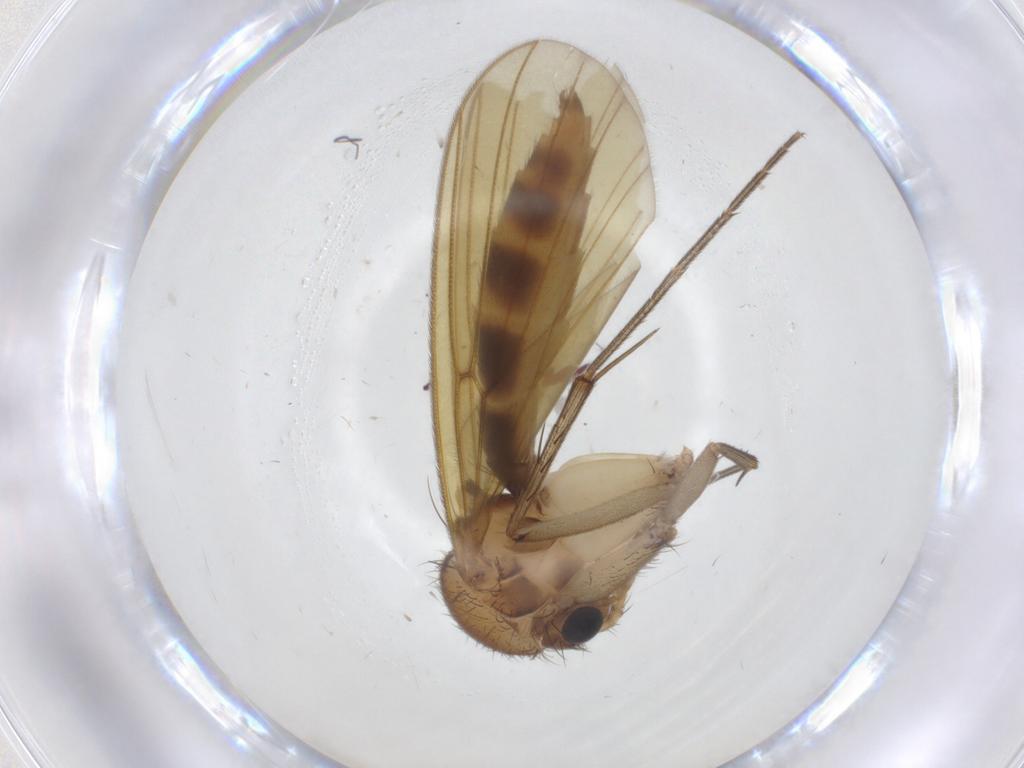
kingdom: Animalia
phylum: Arthropoda
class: Insecta
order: Diptera
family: Mycetophilidae
